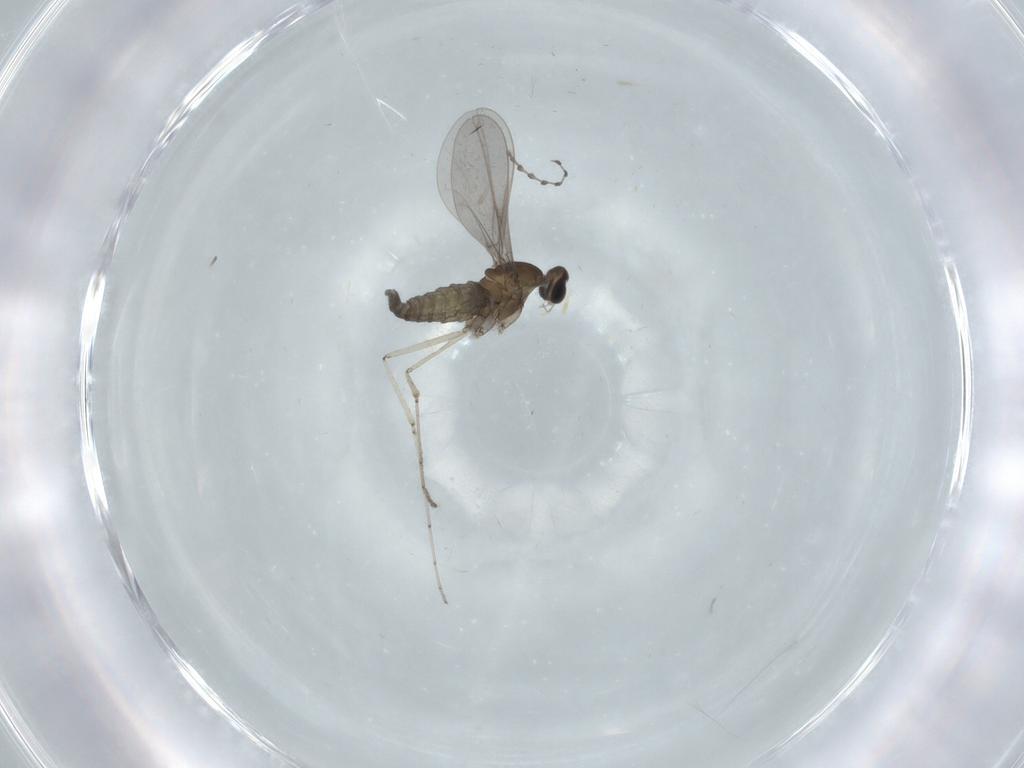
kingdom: Animalia
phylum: Arthropoda
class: Insecta
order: Diptera
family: Cecidomyiidae
